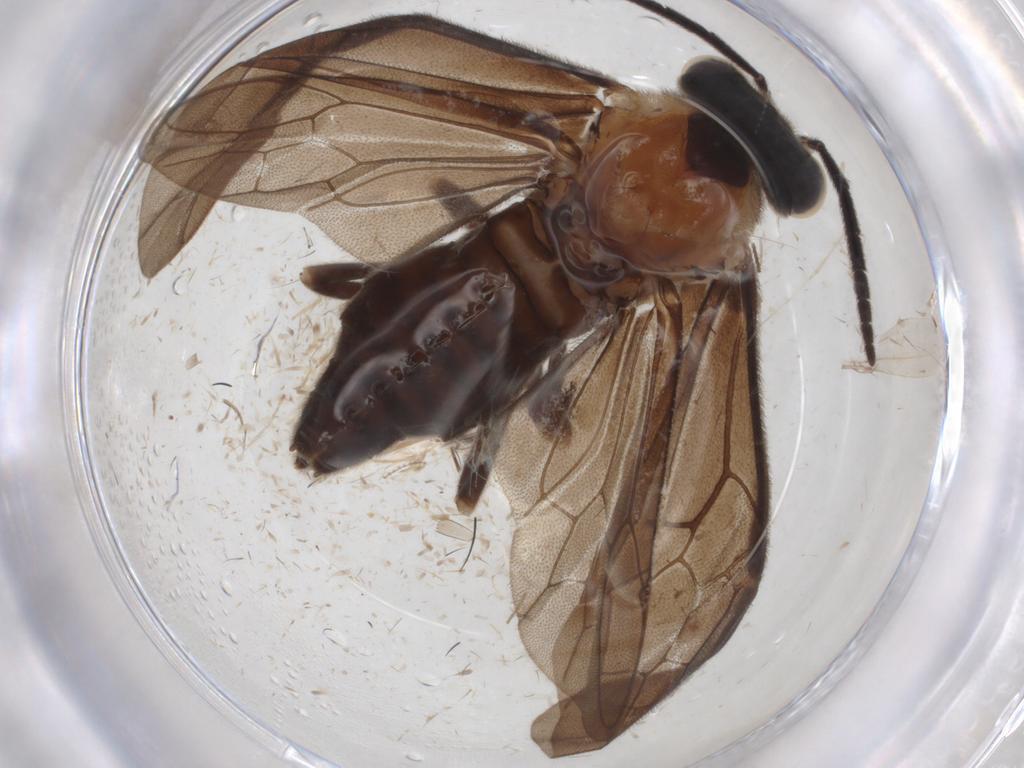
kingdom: Animalia
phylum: Arthropoda
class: Insecta
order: Hymenoptera
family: Tenthredinidae
